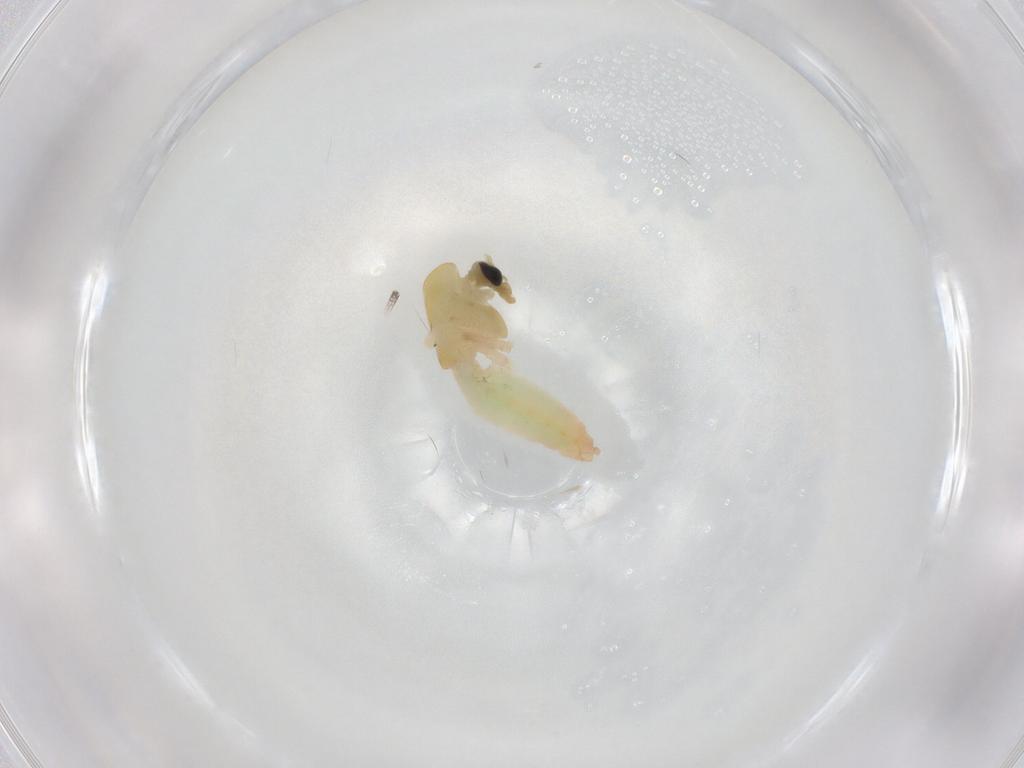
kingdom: Animalia
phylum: Arthropoda
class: Insecta
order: Diptera
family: Chironomidae
